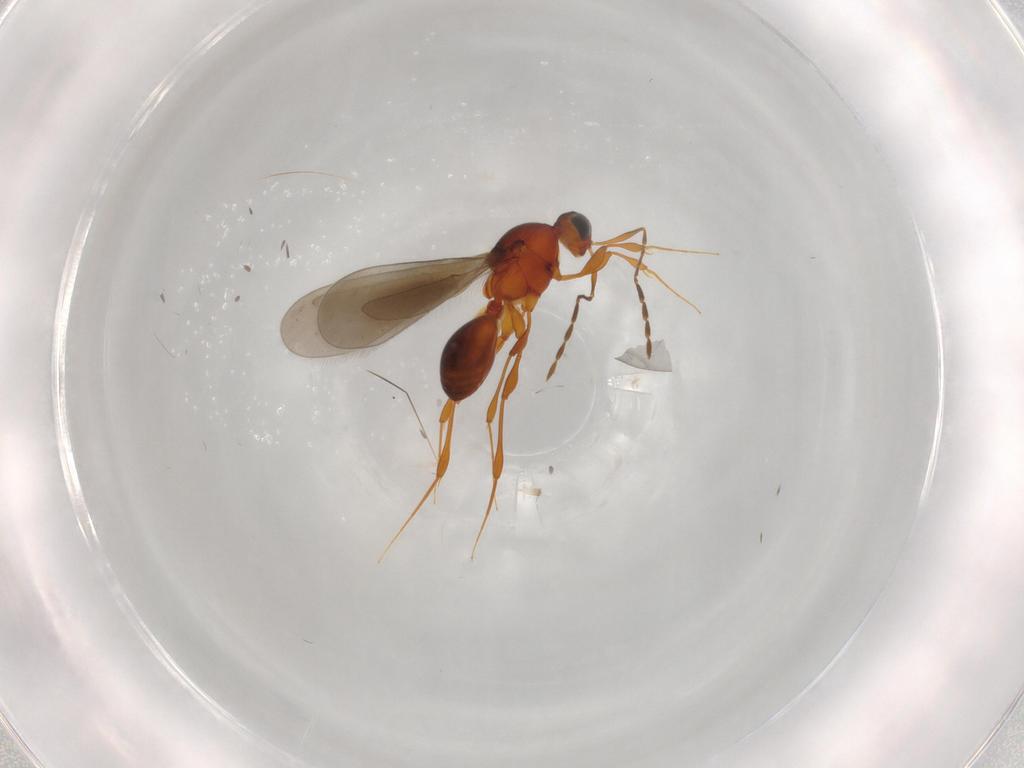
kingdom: Animalia
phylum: Arthropoda
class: Insecta
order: Hymenoptera
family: Platygastridae
